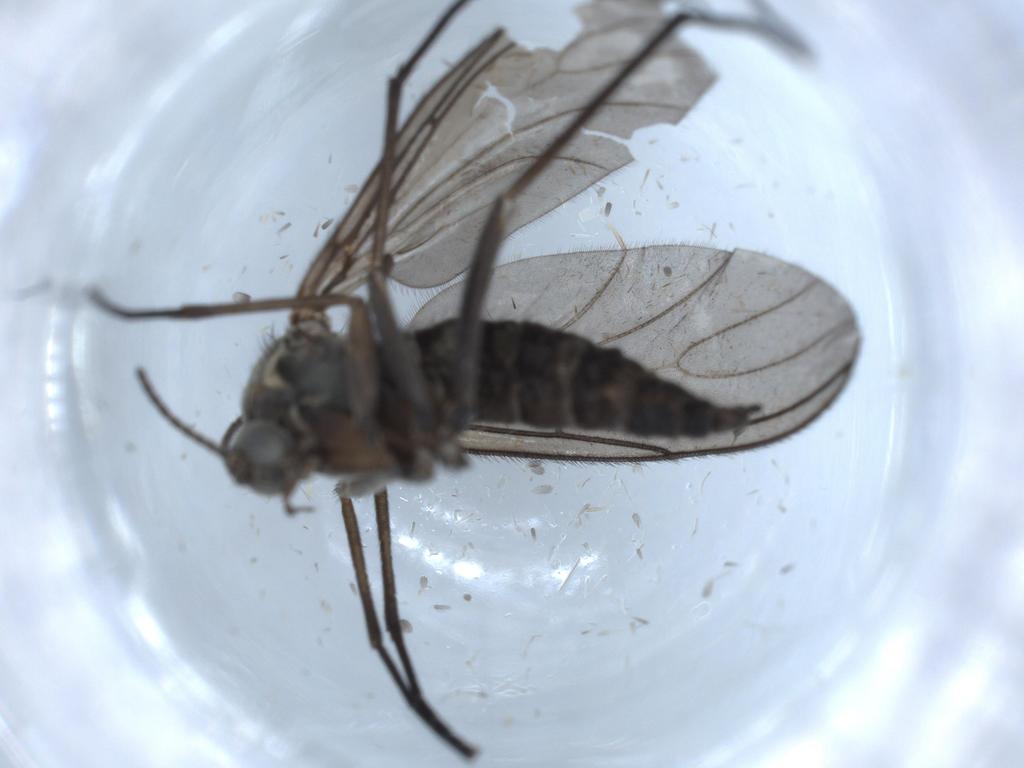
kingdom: Animalia
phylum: Arthropoda
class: Insecta
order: Diptera
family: Sciaridae
